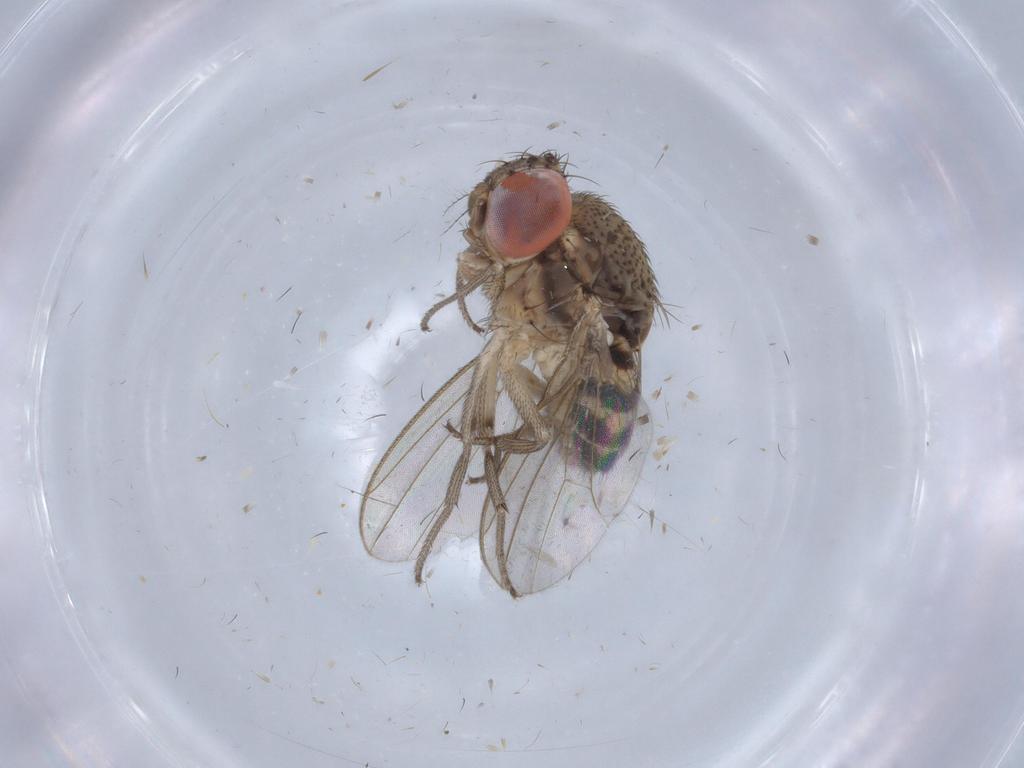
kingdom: Animalia
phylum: Arthropoda
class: Insecta
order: Diptera
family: Drosophilidae
